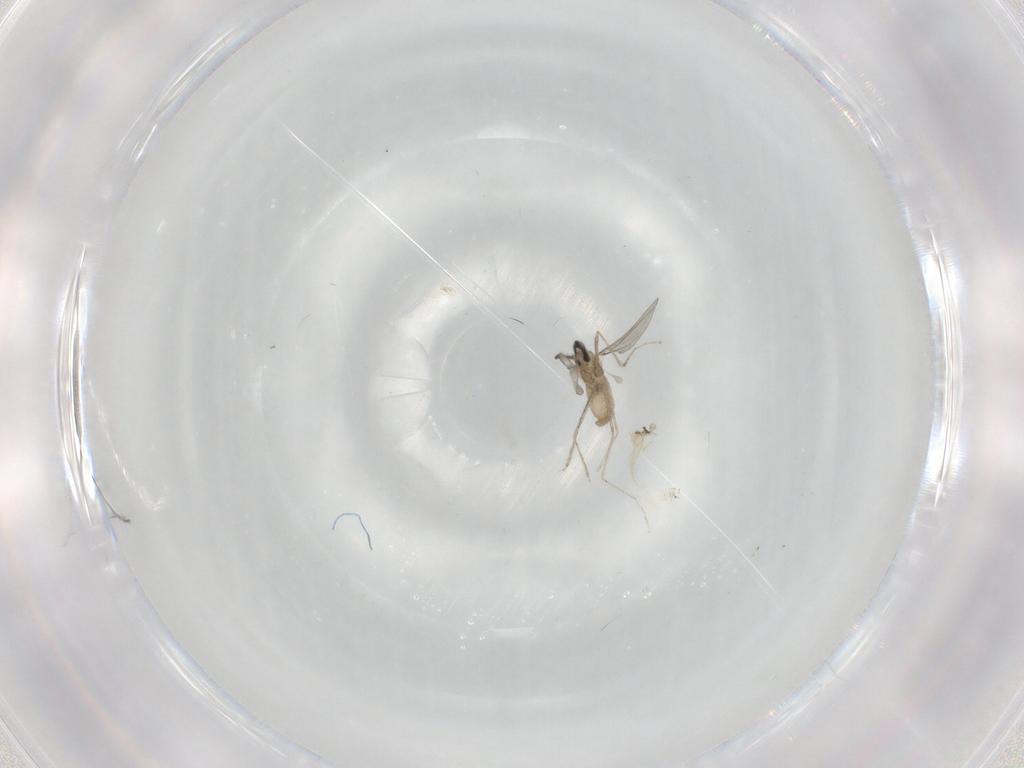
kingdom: Animalia
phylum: Arthropoda
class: Insecta
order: Diptera
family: Cecidomyiidae
